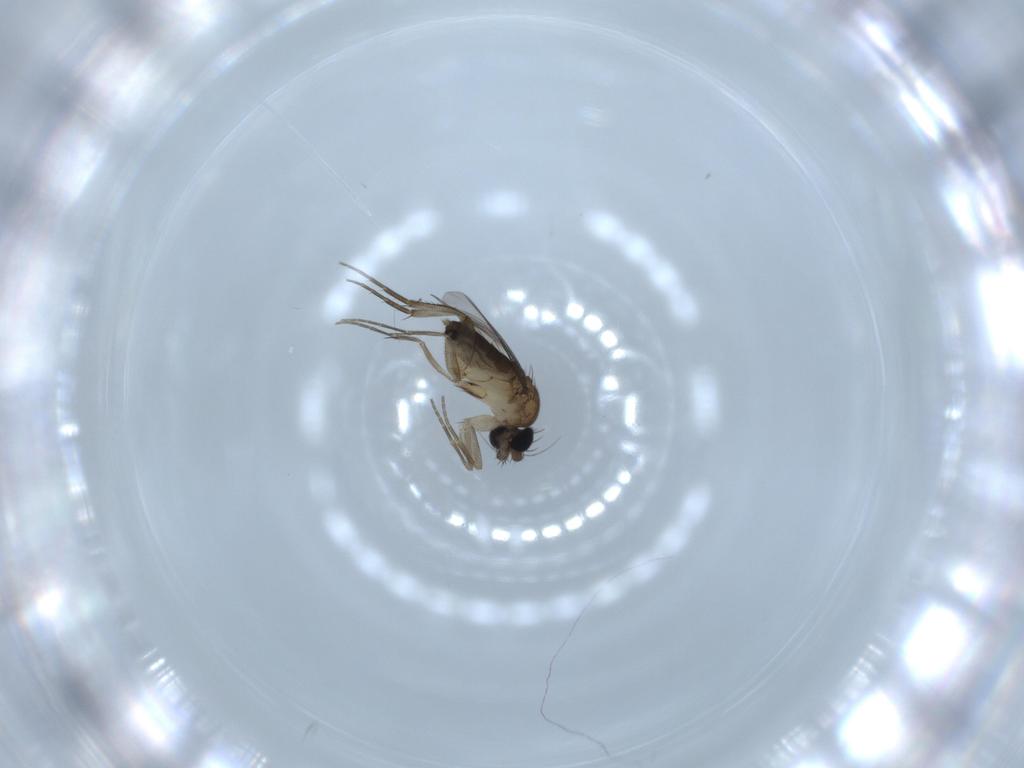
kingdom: Animalia
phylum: Arthropoda
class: Insecta
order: Diptera
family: Phoridae
